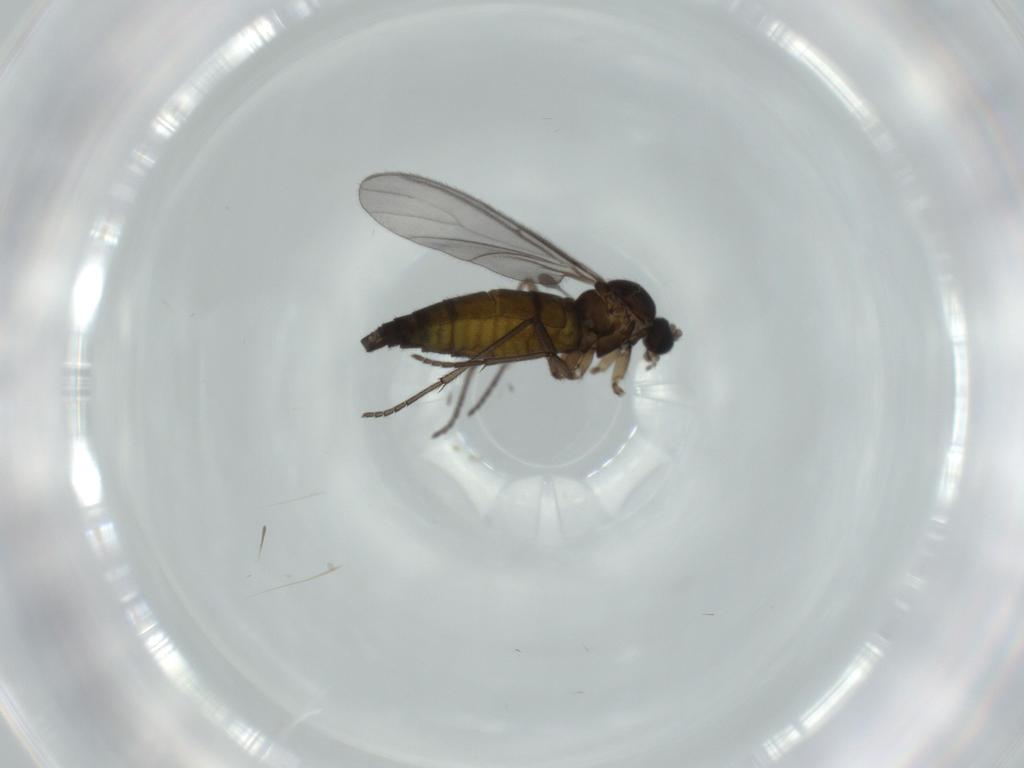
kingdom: Animalia
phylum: Arthropoda
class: Insecta
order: Diptera
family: Sciaridae
